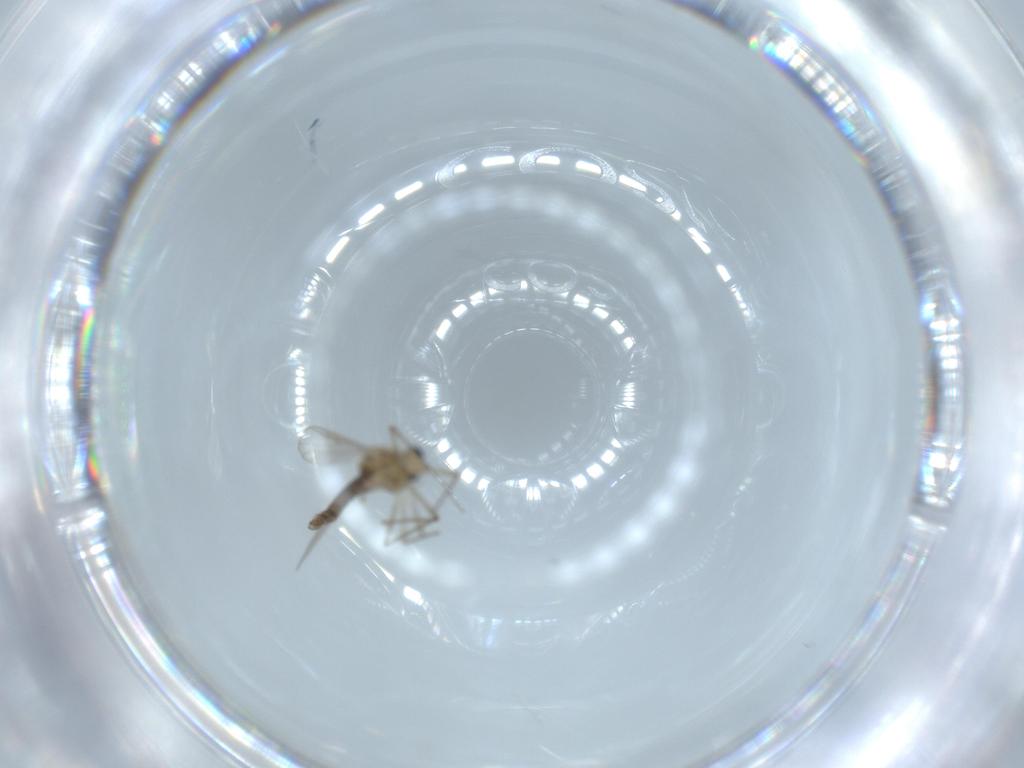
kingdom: Animalia
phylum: Arthropoda
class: Insecta
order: Diptera
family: Chironomidae
